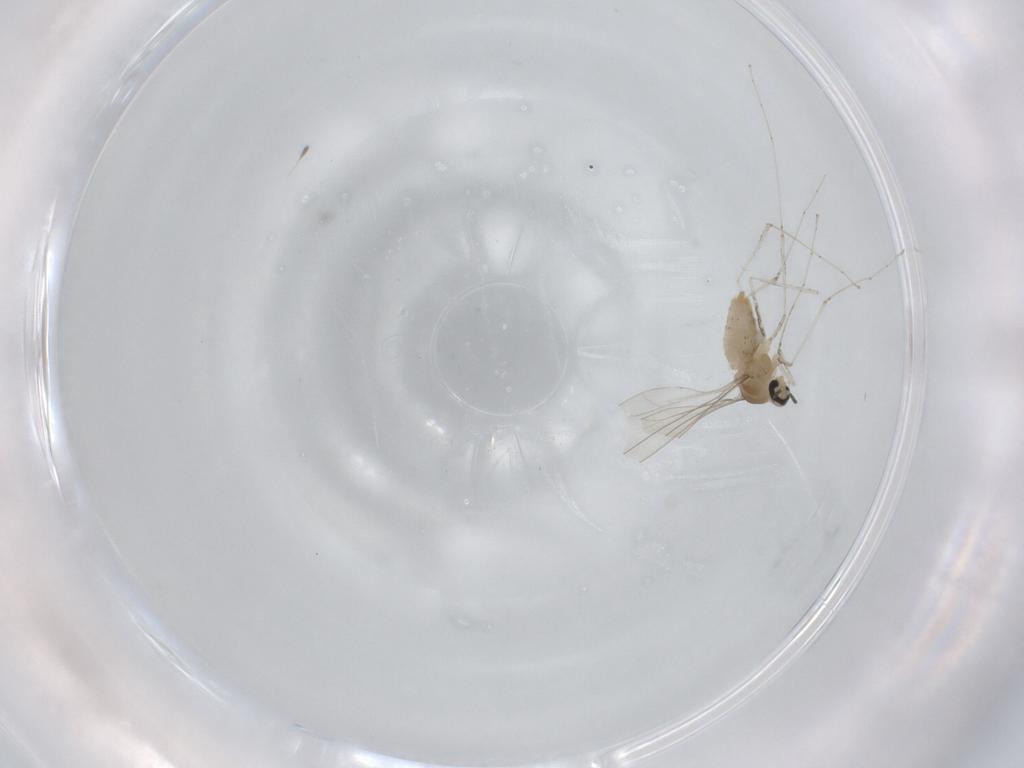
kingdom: Animalia
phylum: Arthropoda
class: Insecta
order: Diptera
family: Cecidomyiidae
